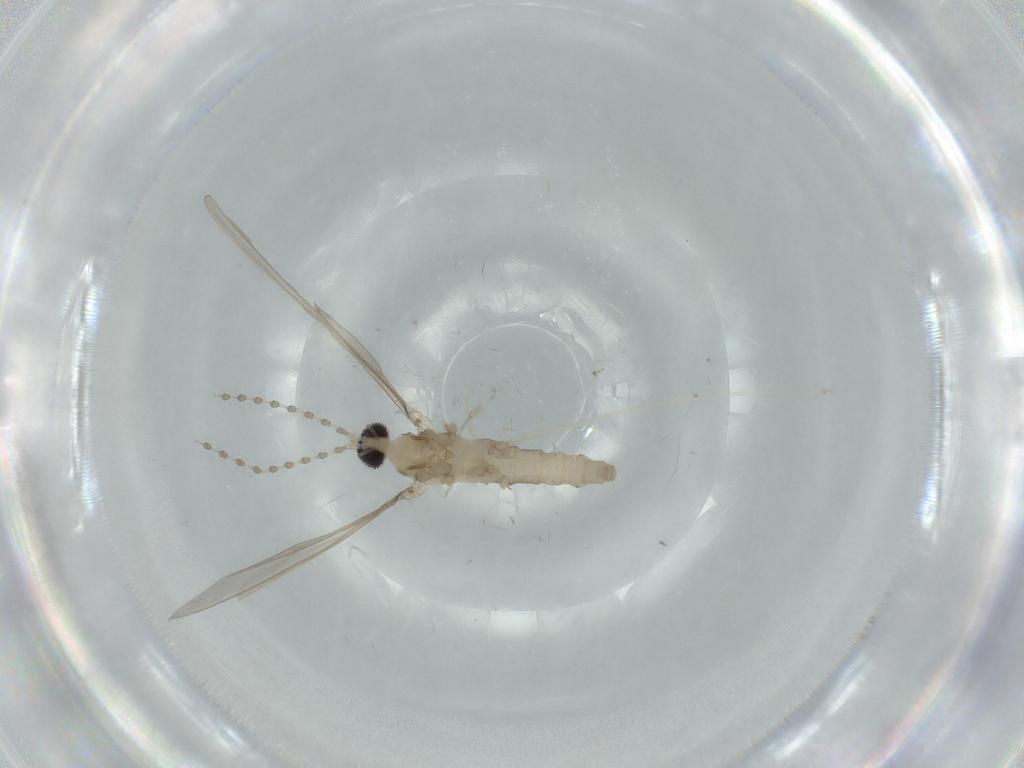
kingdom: Animalia
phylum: Arthropoda
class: Insecta
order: Diptera
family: Cecidomyiidae
